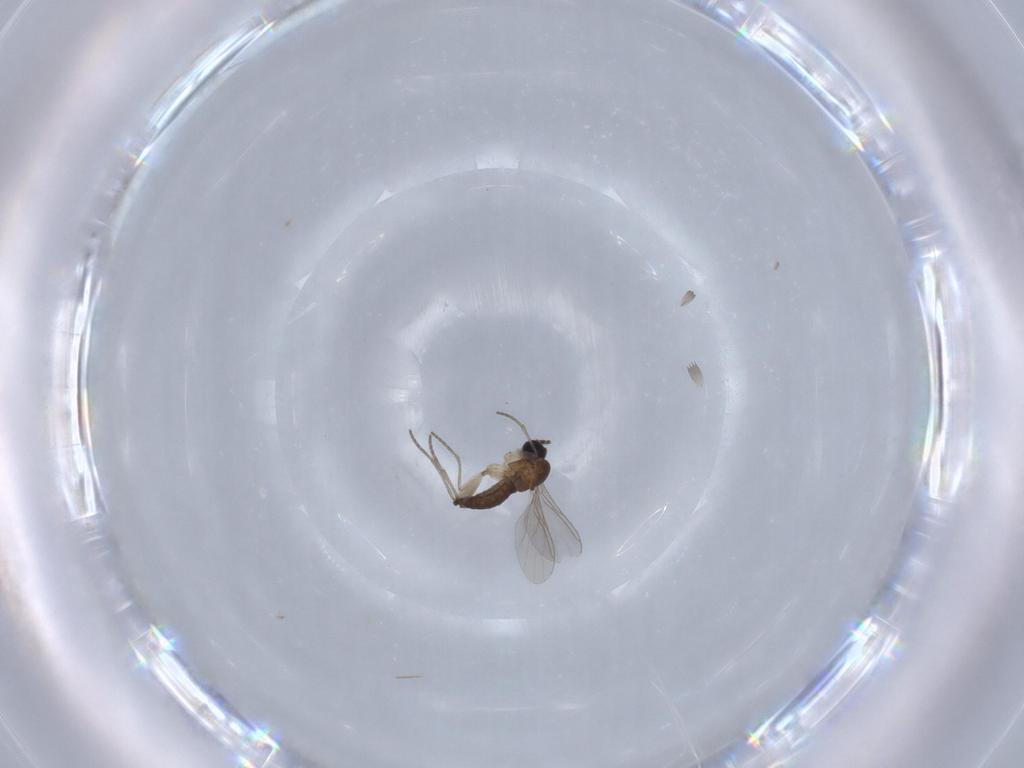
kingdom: Animalia
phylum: Arthropoda
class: Insecta
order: Diptera
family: Sciaridae
